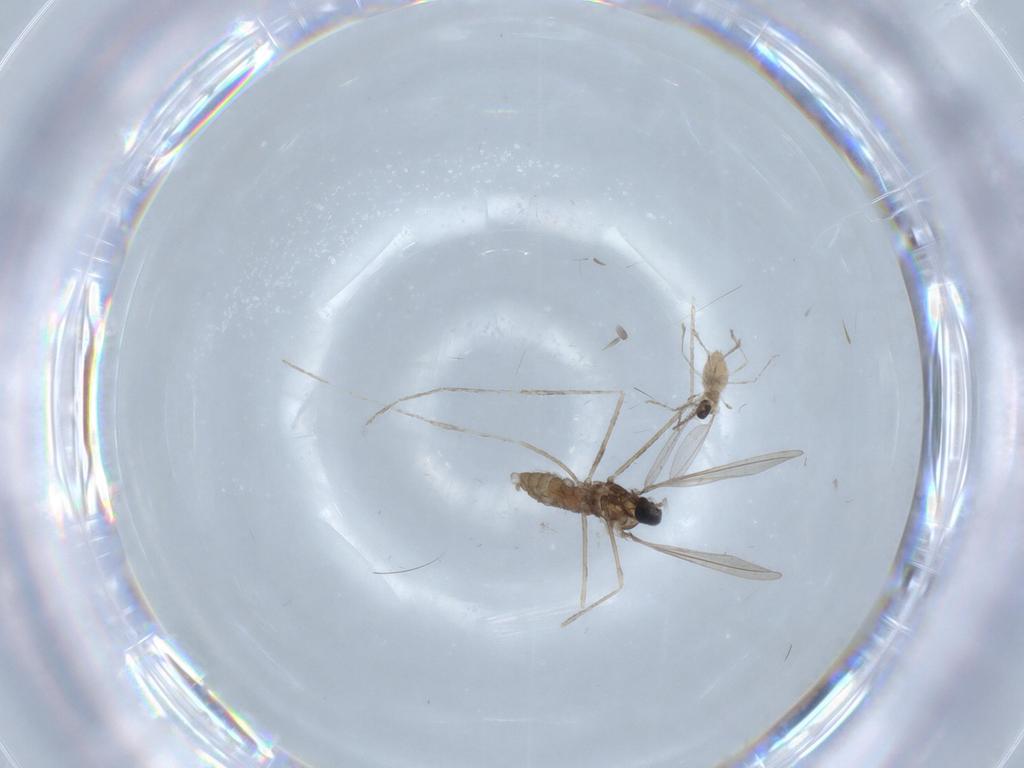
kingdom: Animalia
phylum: Arthropoda
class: Insecta
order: Diptera
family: Cecidomyiidae
